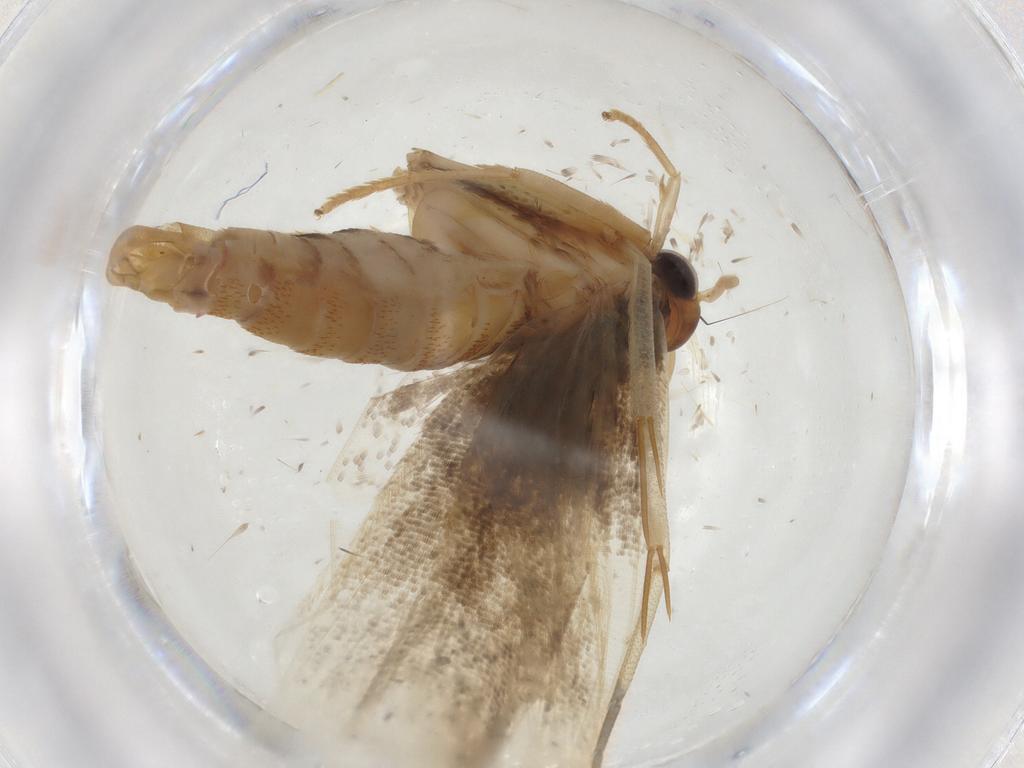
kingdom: Animalia
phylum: Arthropoda
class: Insecta
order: Lepidoptera
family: Lecithoceridae
